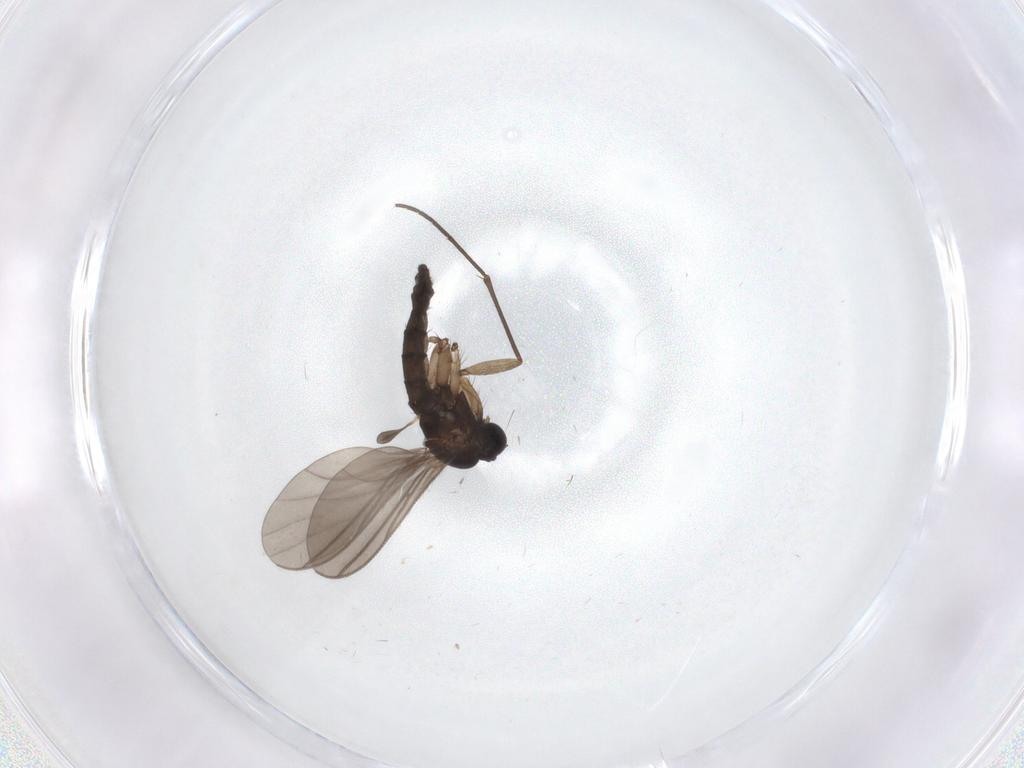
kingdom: Animalia
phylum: Arthropoda
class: Insecta
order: Diptera
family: Sciaridae
